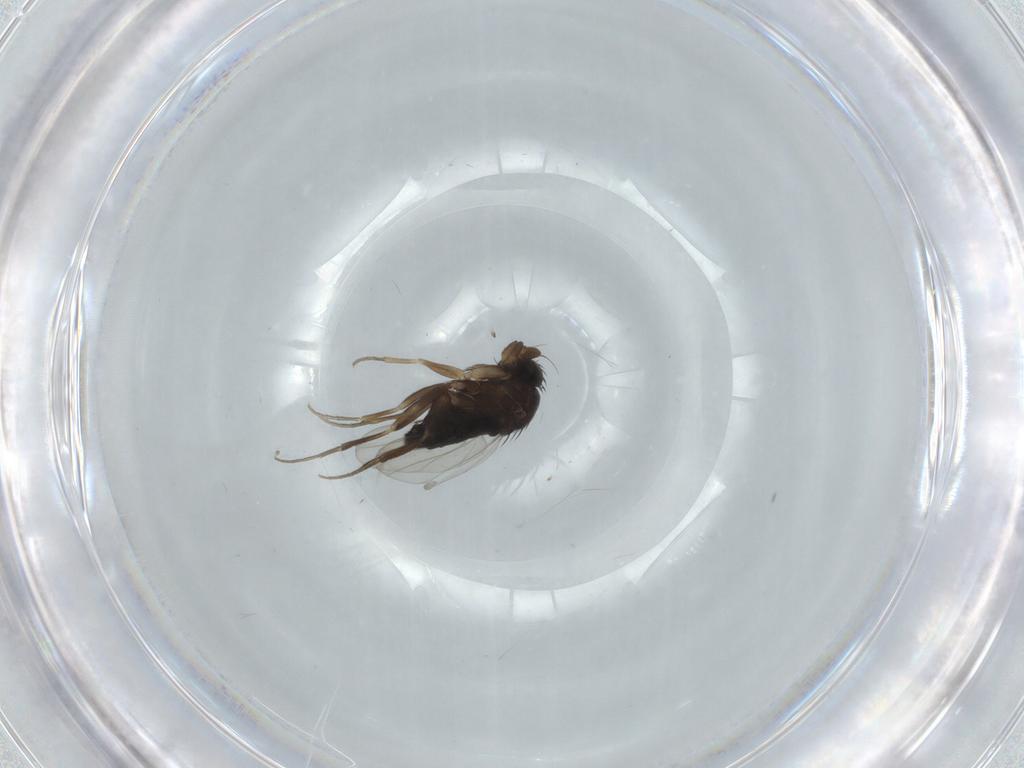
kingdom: Animalia
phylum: Arthropoda
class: Insecta
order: Diptera
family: Phoridae
